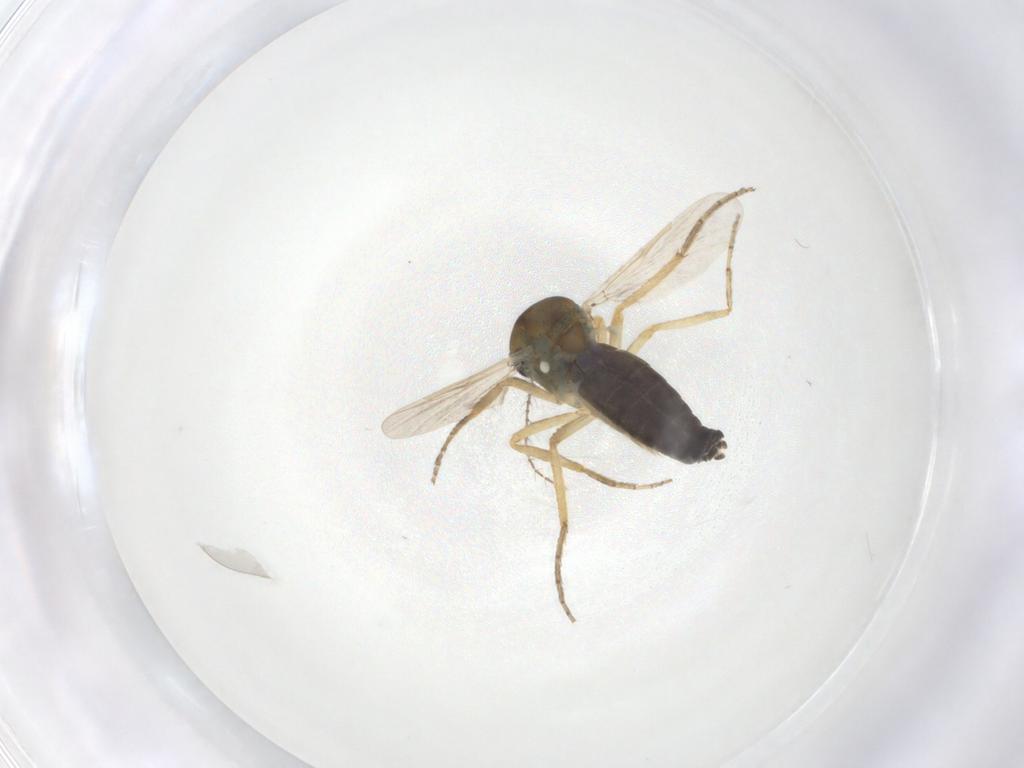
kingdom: Animalia
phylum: Arthropoda
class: Insecta
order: Diptera
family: Ceratopogonidae
